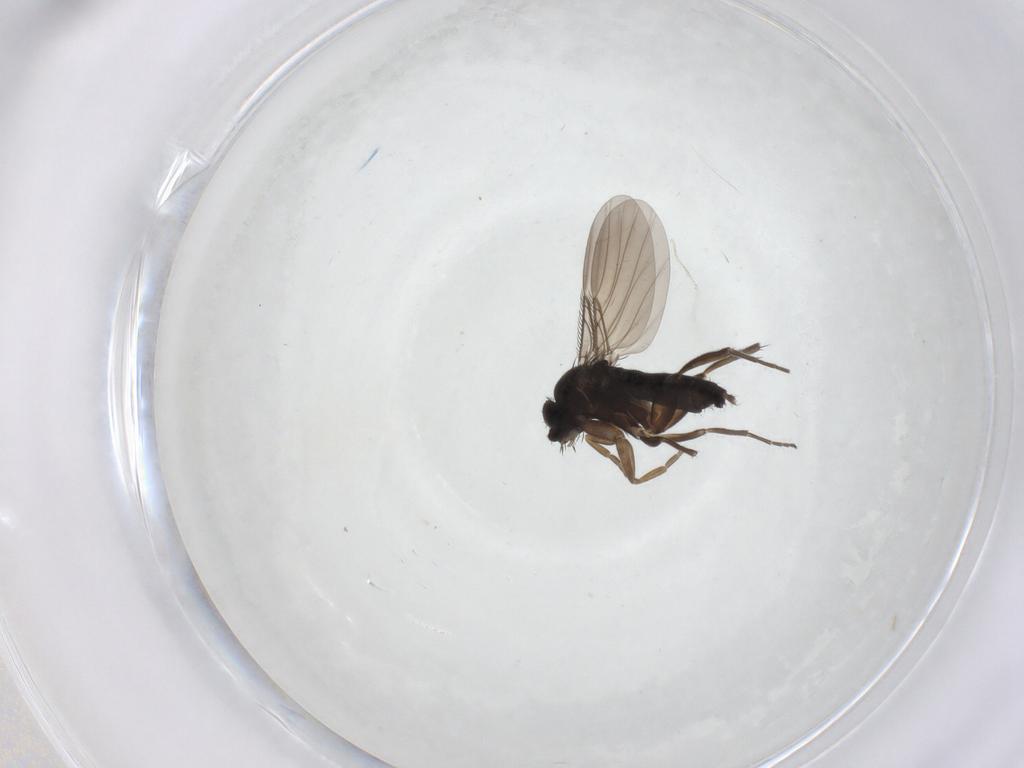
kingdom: Animalia
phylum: Arthropoda
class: Insecta
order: Diptera
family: Phoridae
